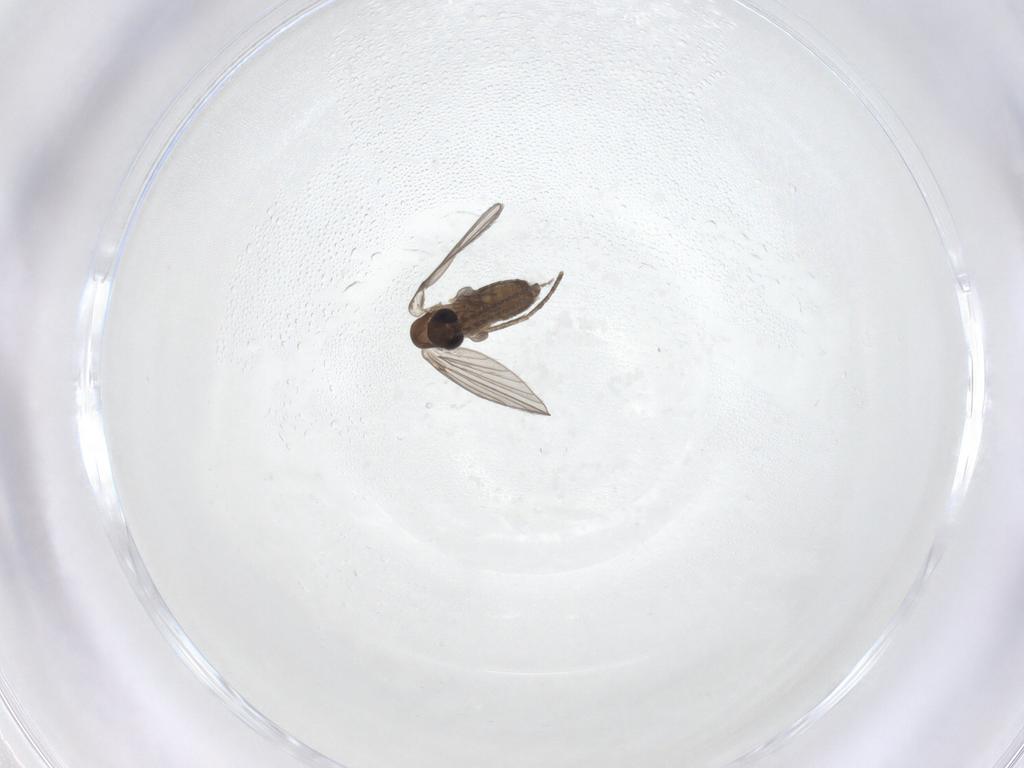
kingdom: Animalia
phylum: Arthropoda
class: Insecta
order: Diptera
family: Psychodidae
